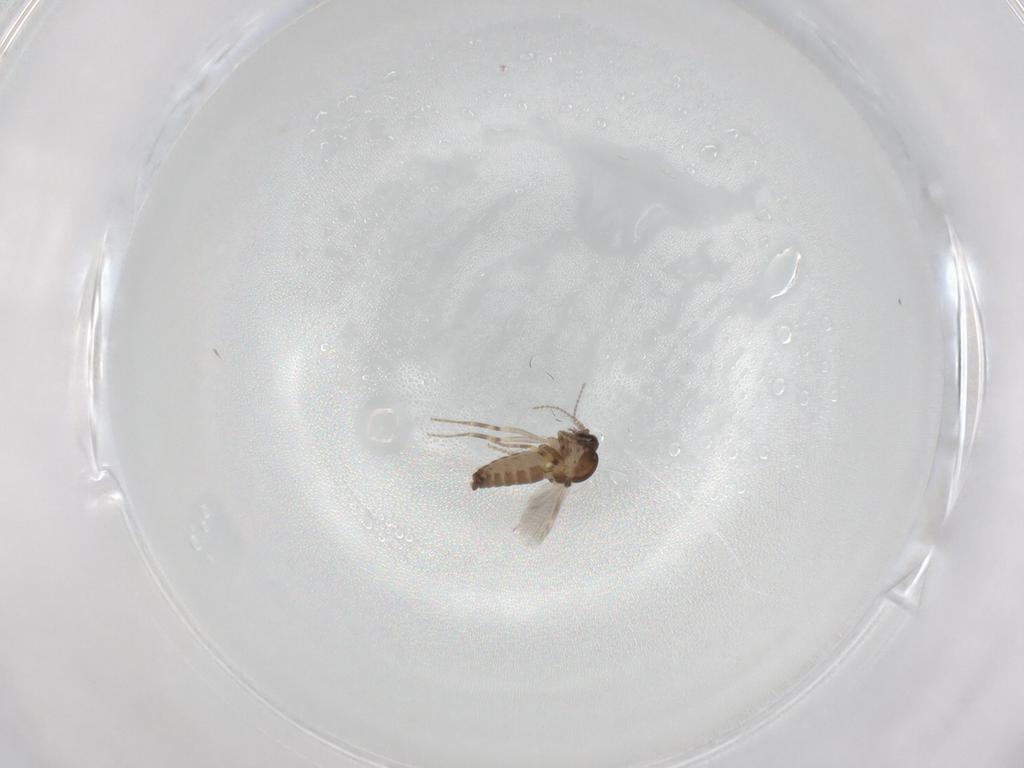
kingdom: Animalia
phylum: Arthropoda
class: Insecta
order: Diptera
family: Ceratopogonidae
